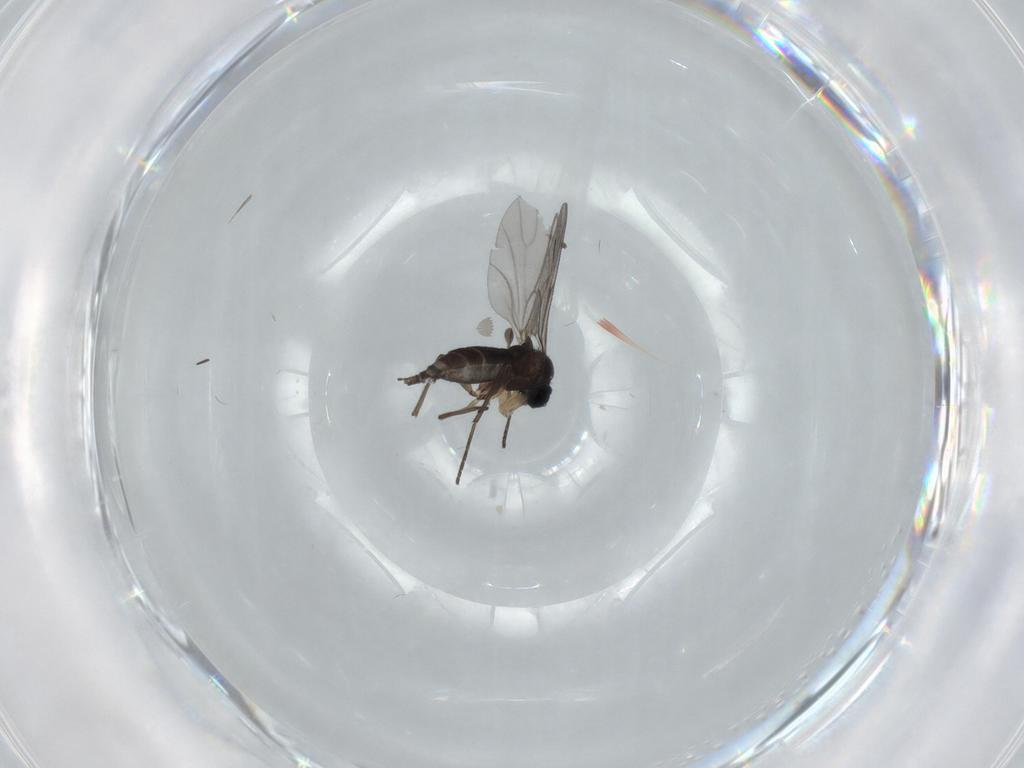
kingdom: Animalia
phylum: Arthropoda
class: Insecta
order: Diptera
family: Sciaridae
